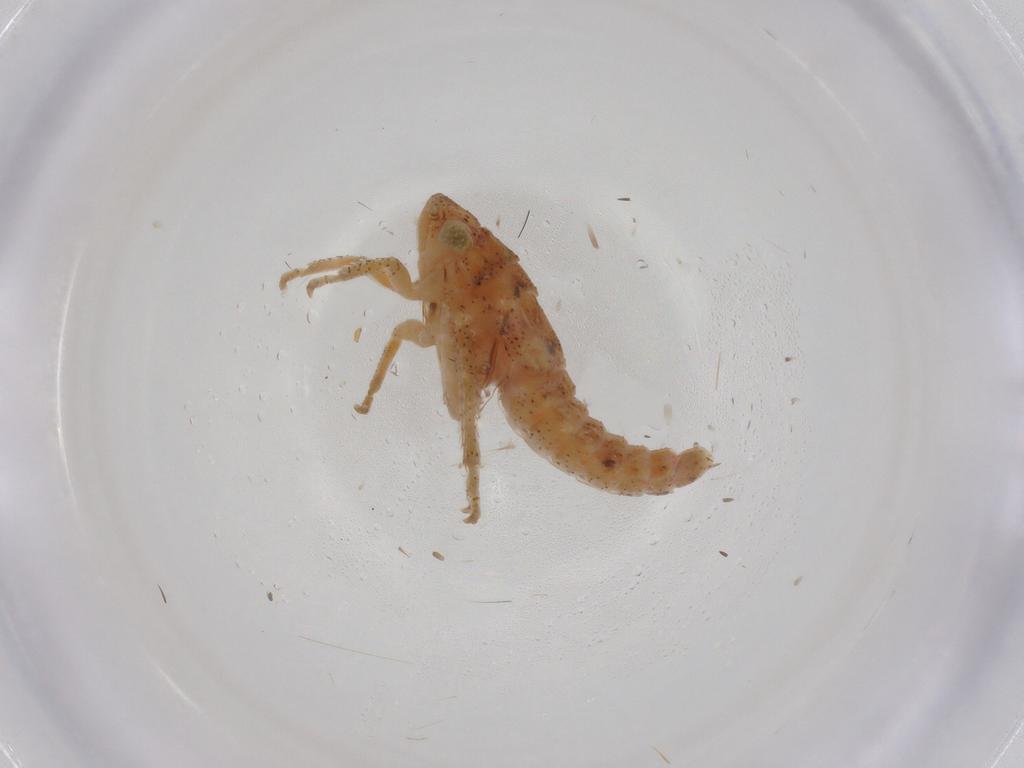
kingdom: Animalia
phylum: Arthropoda
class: Insecta
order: Hemiptera
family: Cicadellidae
